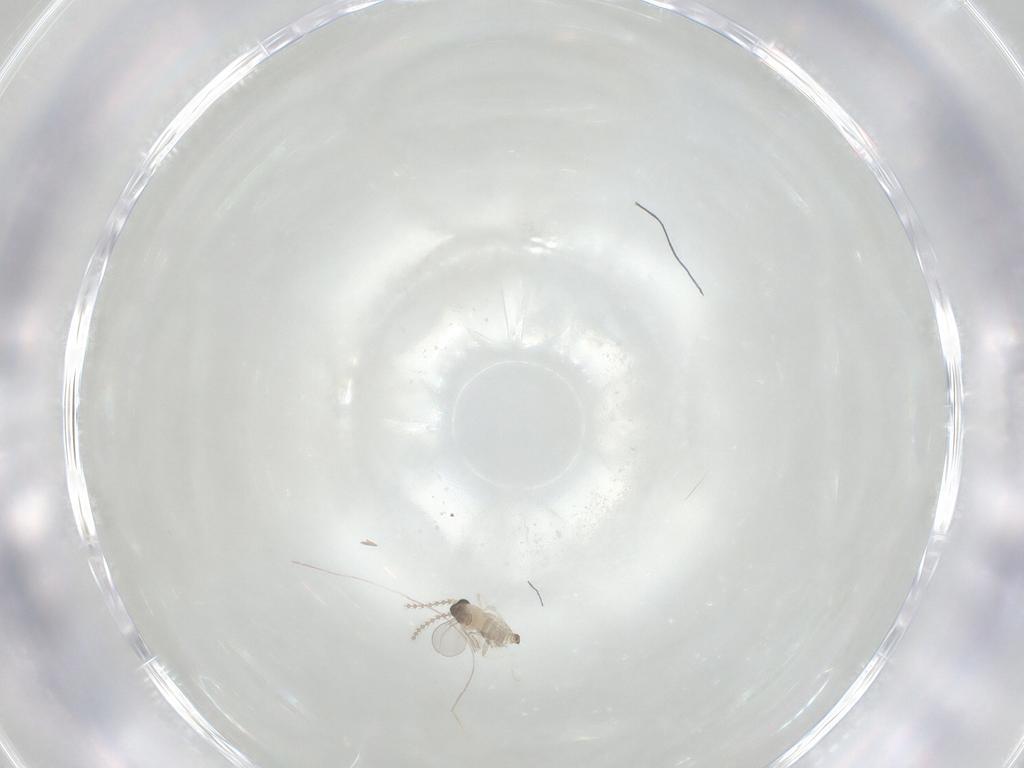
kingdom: Animalia
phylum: Arthropoda
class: Insecta
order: Diptera
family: Cecidomyiidae
